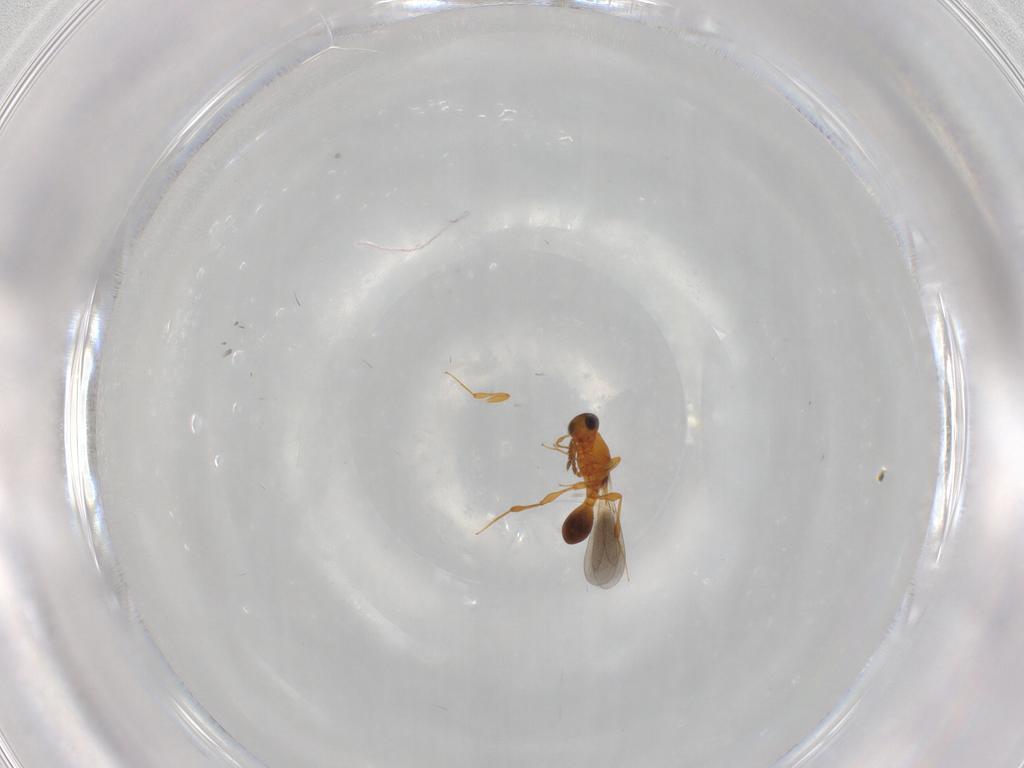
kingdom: Animalia
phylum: Arthropoda
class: Insecta
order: Hymenoptera
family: Platygastridae
